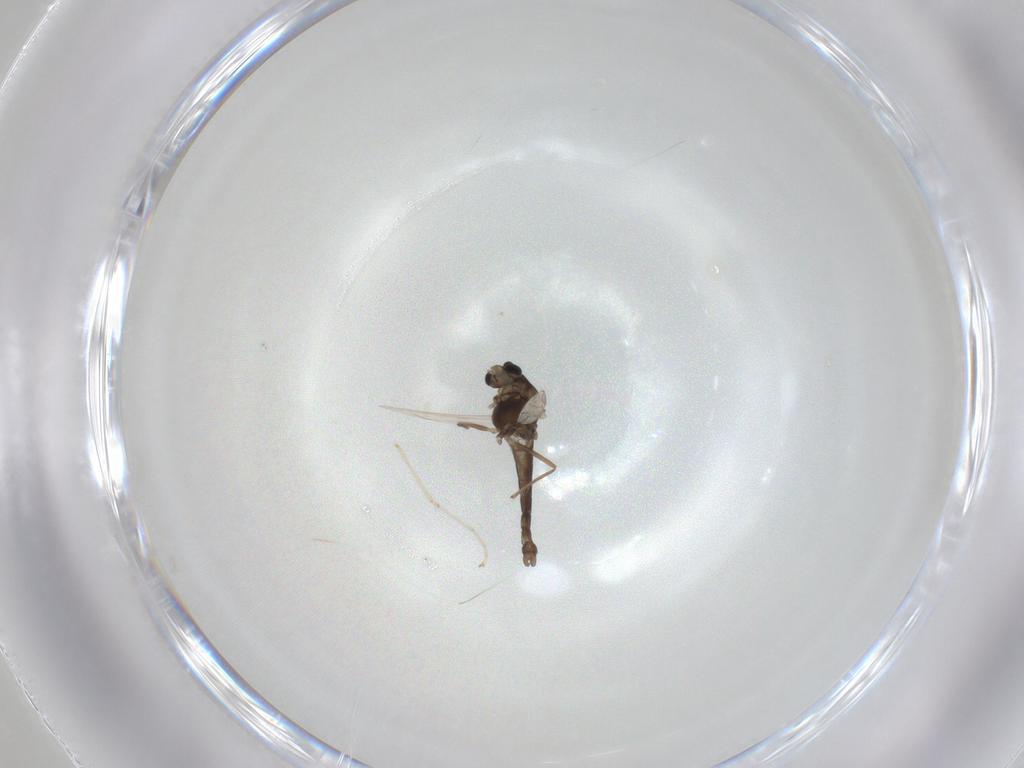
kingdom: Animalia
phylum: Arthropoda
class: Insecta
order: Diptera
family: Chironomidae
